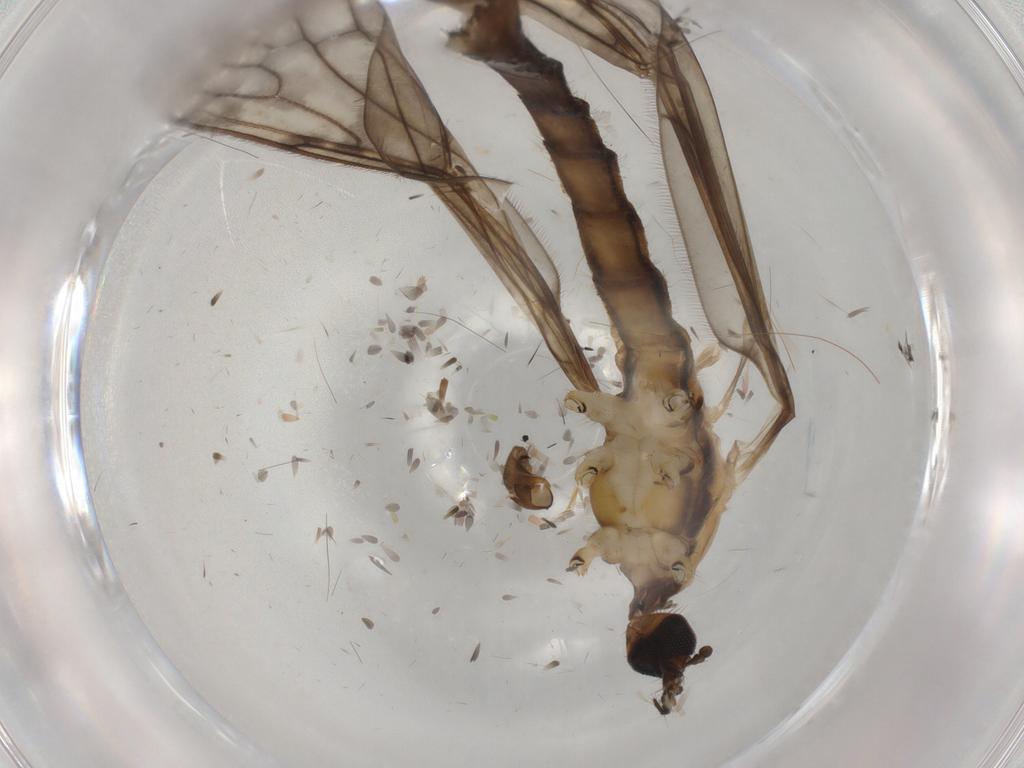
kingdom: Animalia
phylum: Arthropoda
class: Insecta
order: Diptera
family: Limoniidae
